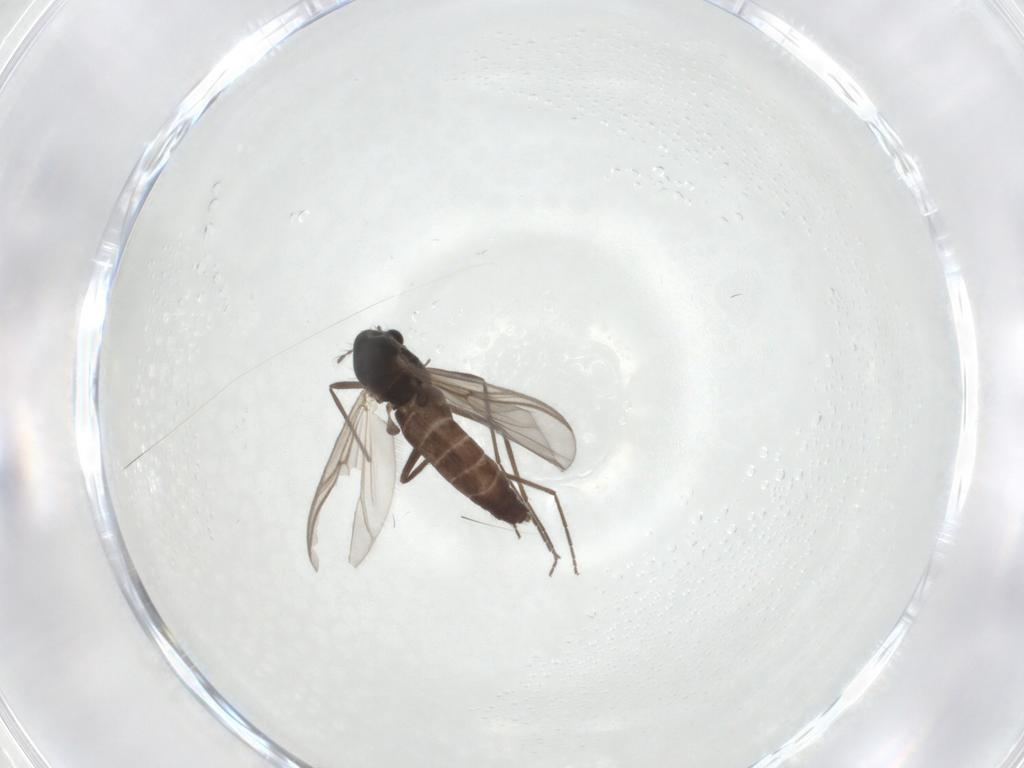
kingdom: Animalia
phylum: Arthropoda
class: Insecta
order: Diptera
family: Chironomidae
